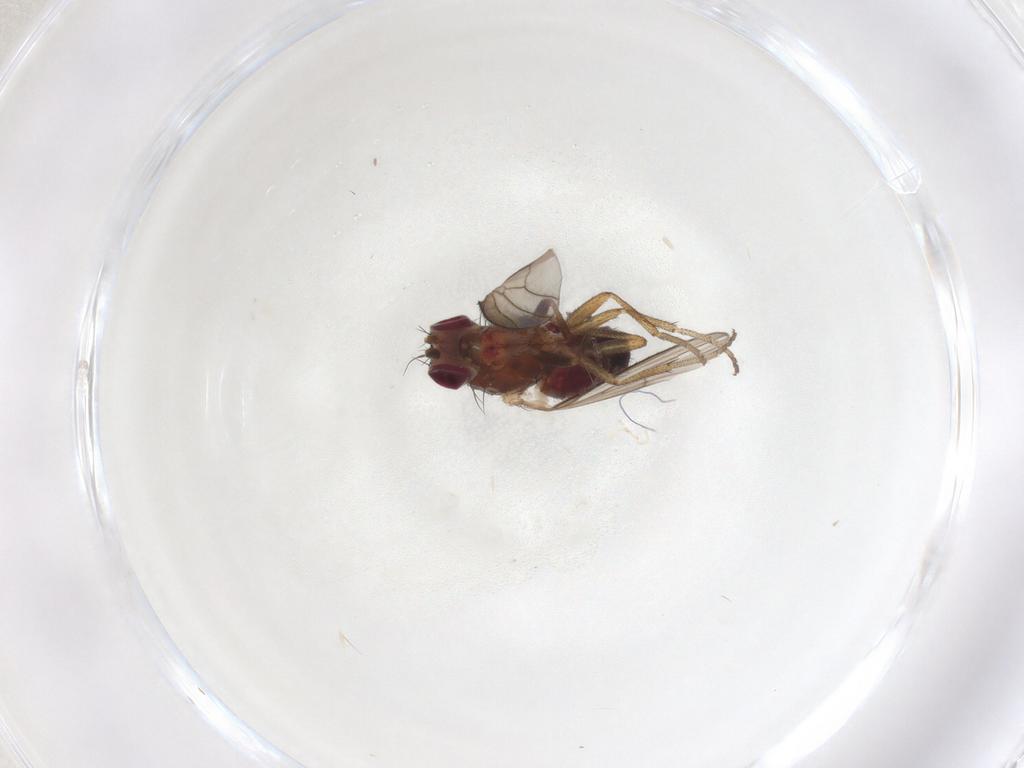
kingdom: Animalia
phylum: Arthropoda
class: Insecta
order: Diptera
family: Heleomyzidae
